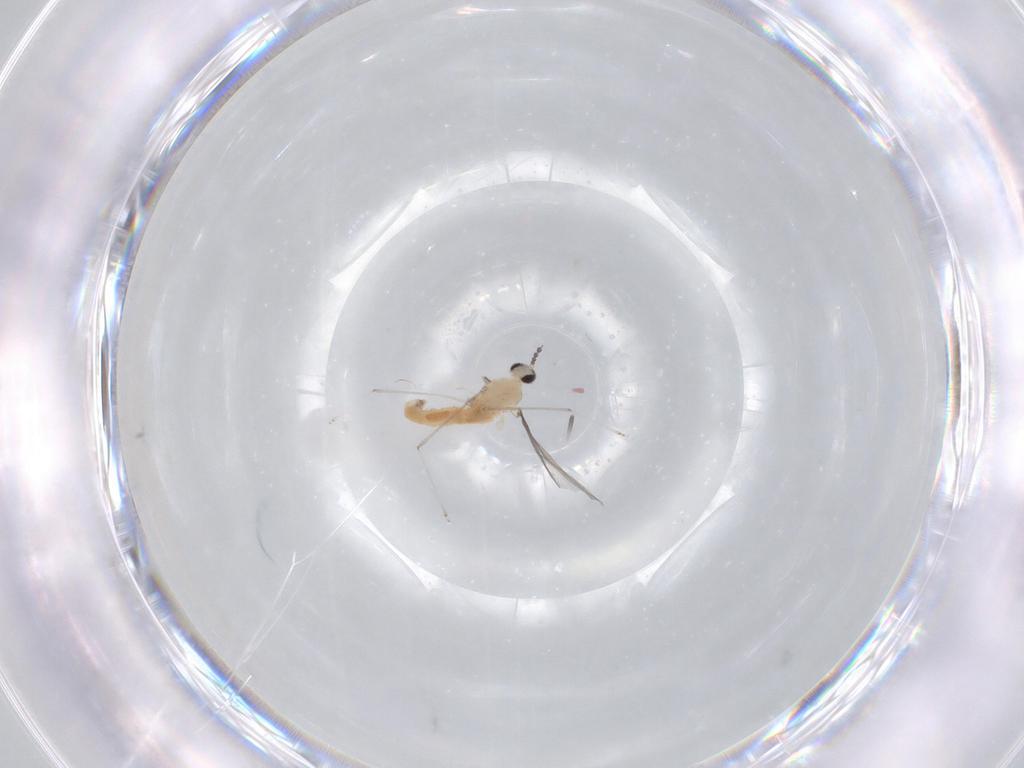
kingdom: Animalia
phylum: Arthropoda
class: Insecta
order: Diptera
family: Cecidomyiidae
